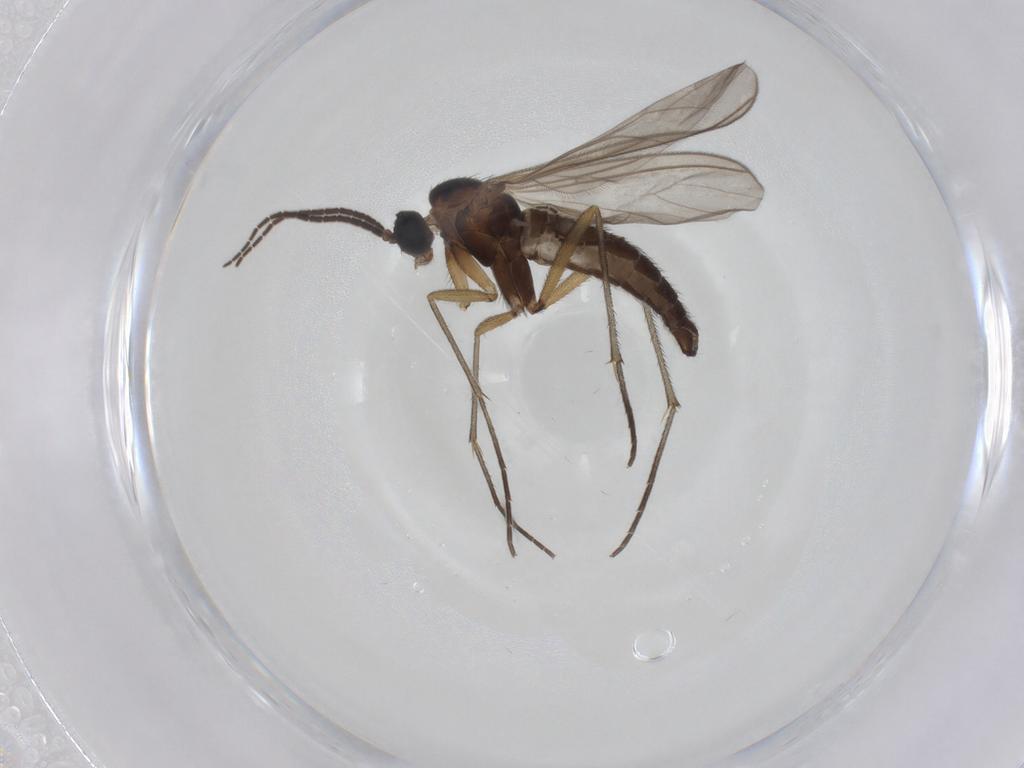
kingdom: Animalia
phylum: Arthropoda
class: Insecta
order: Diptera
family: Sciaridae
